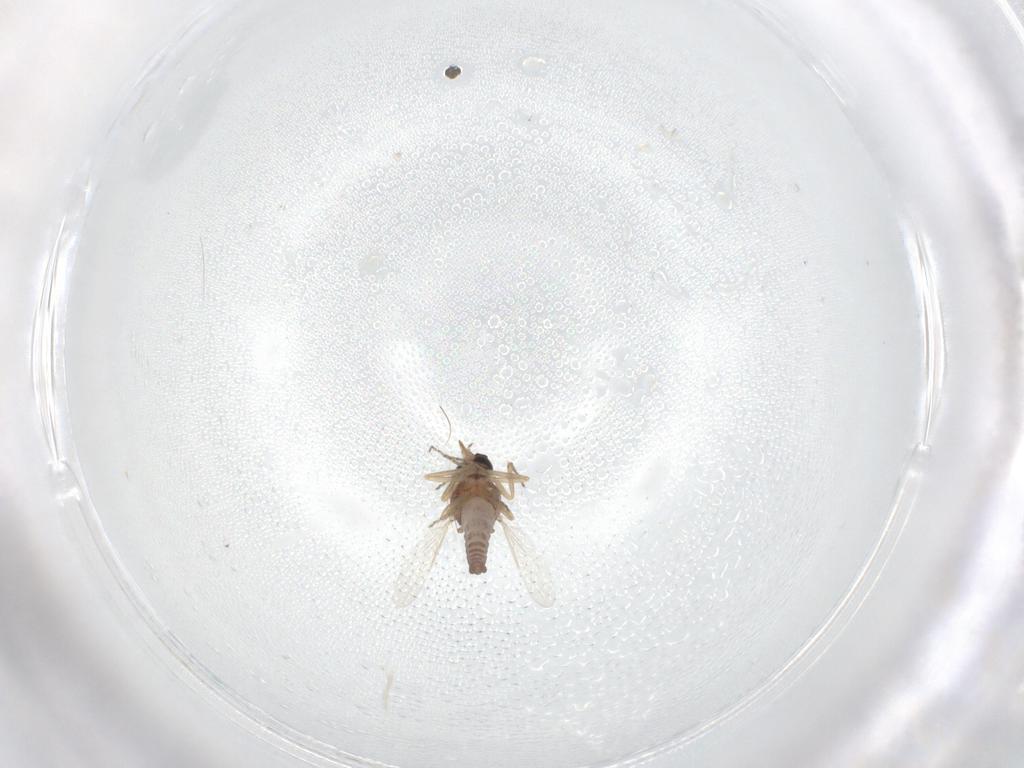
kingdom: Animalia
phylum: Arthropoda
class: Insecta
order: Diptera
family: Ceratopogonidae
